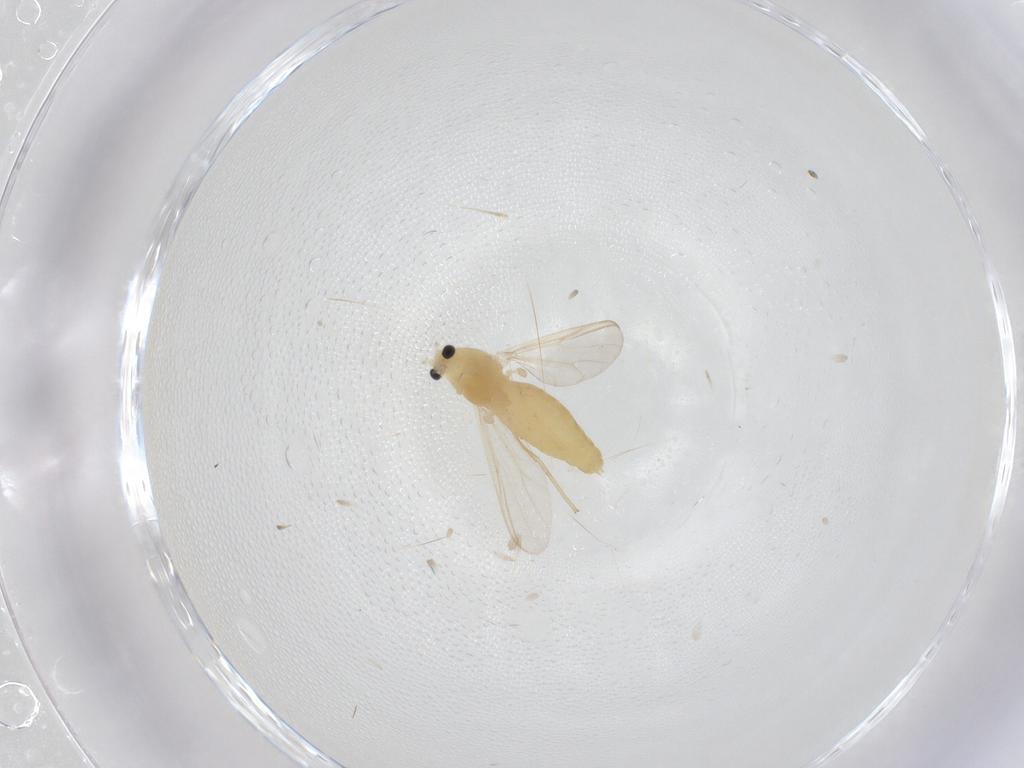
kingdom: Animalia
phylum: Arthropoda
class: Insecta
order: Diptera
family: Chironomidae
